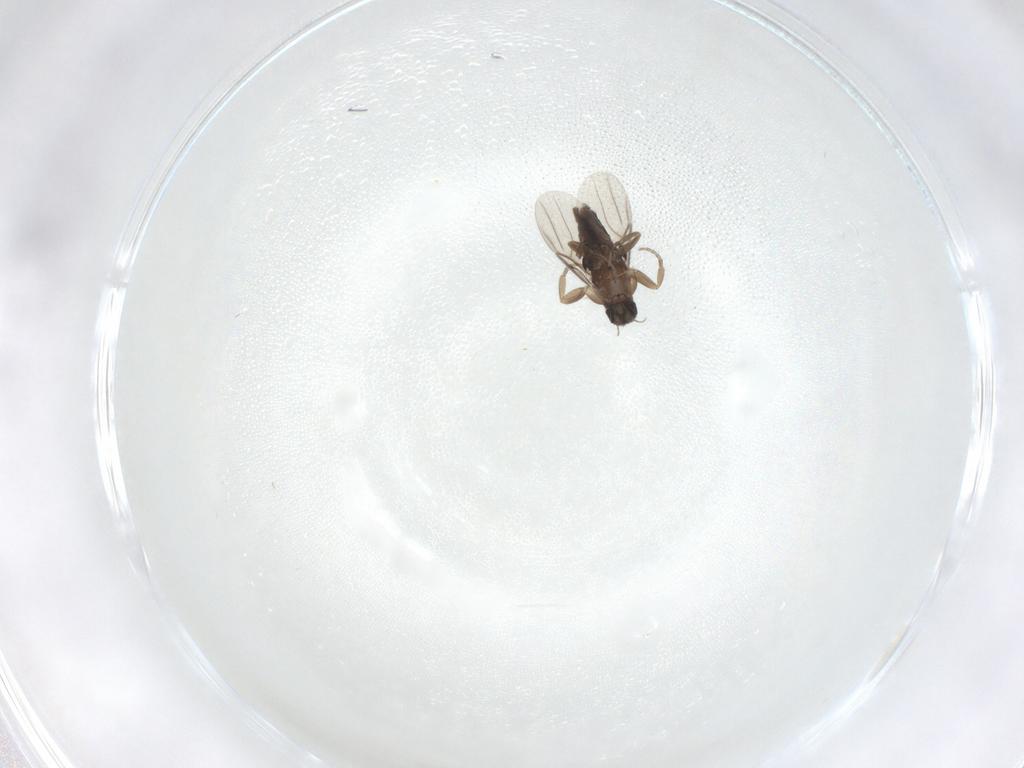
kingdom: Animalia
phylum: Arthropoda
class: Insecta
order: Diptera
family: Phoridae
